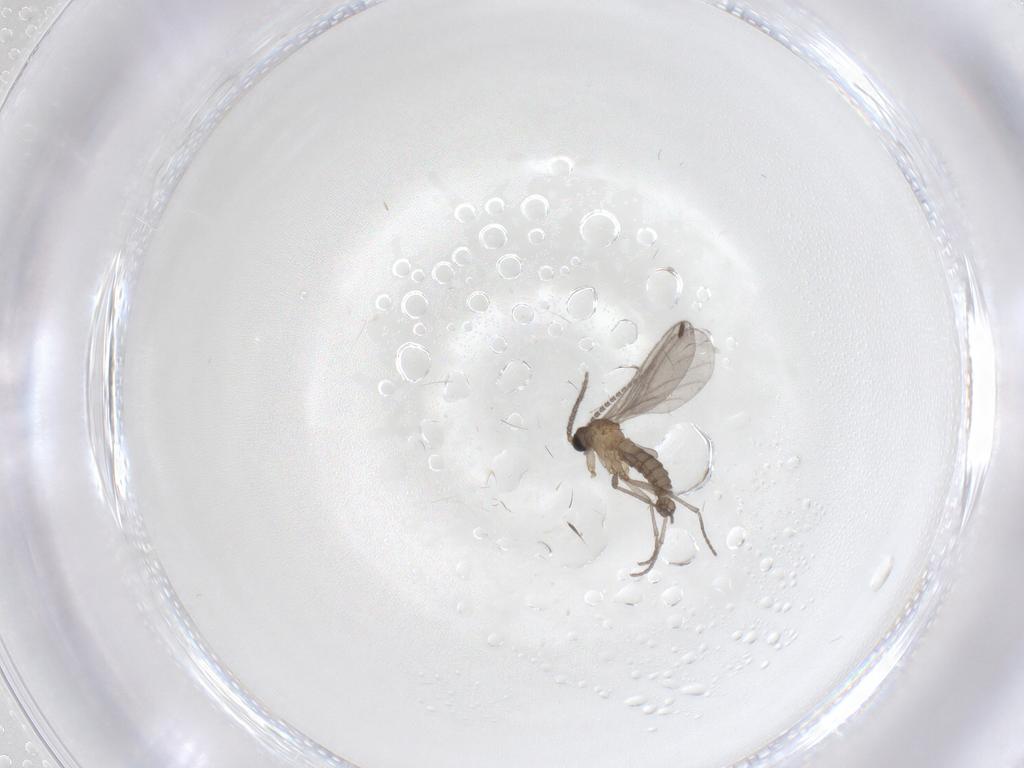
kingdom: Animalia
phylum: Arthropoda
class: Insecta
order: Diptera
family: Sciaridae
